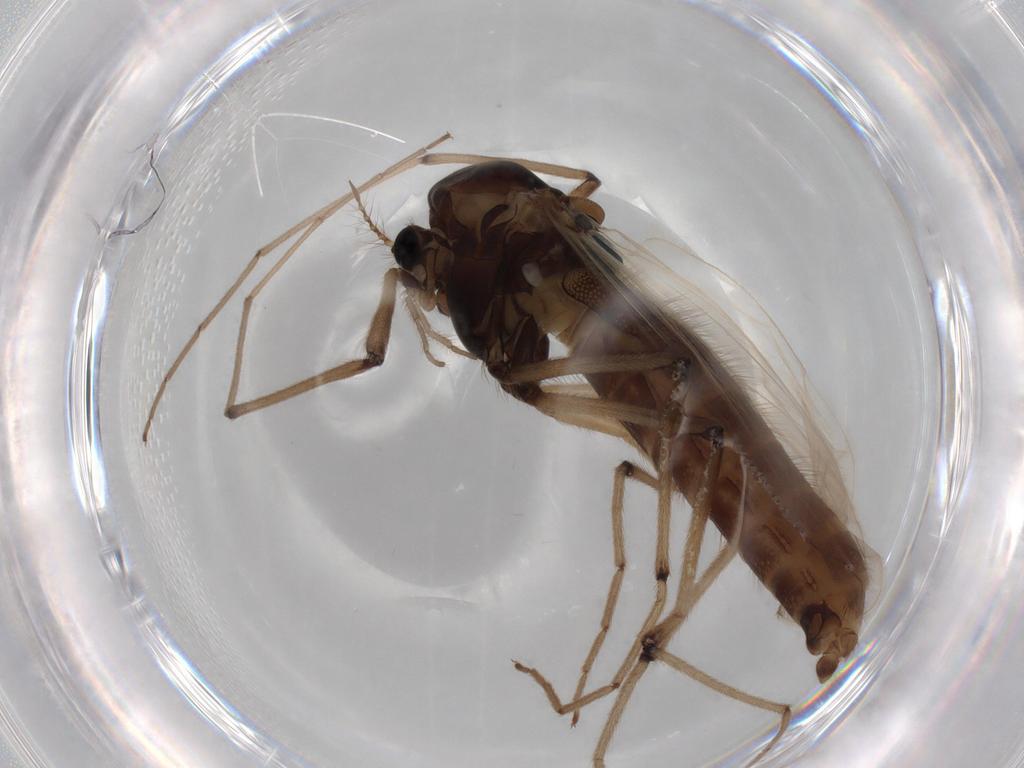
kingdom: Animalia
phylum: Arthropoda
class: Insecta
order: Diptera
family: Chironomidae
